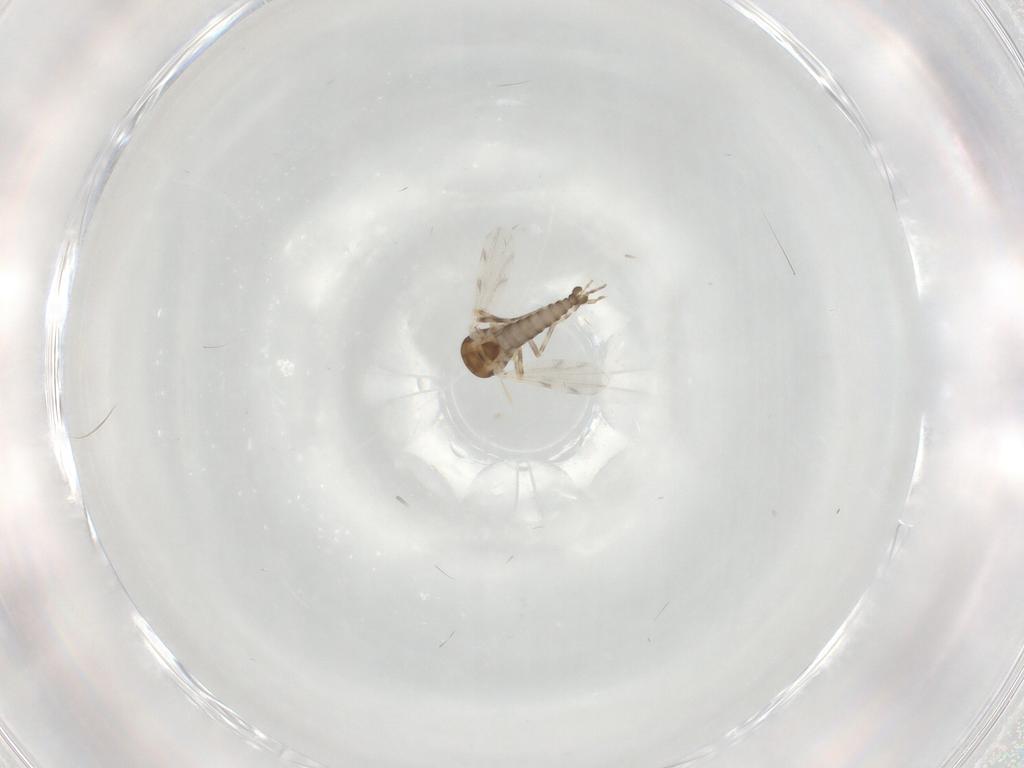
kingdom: Animalia
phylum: Arthropoda
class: Insecta
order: Diptera
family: Ceratopogonidae
